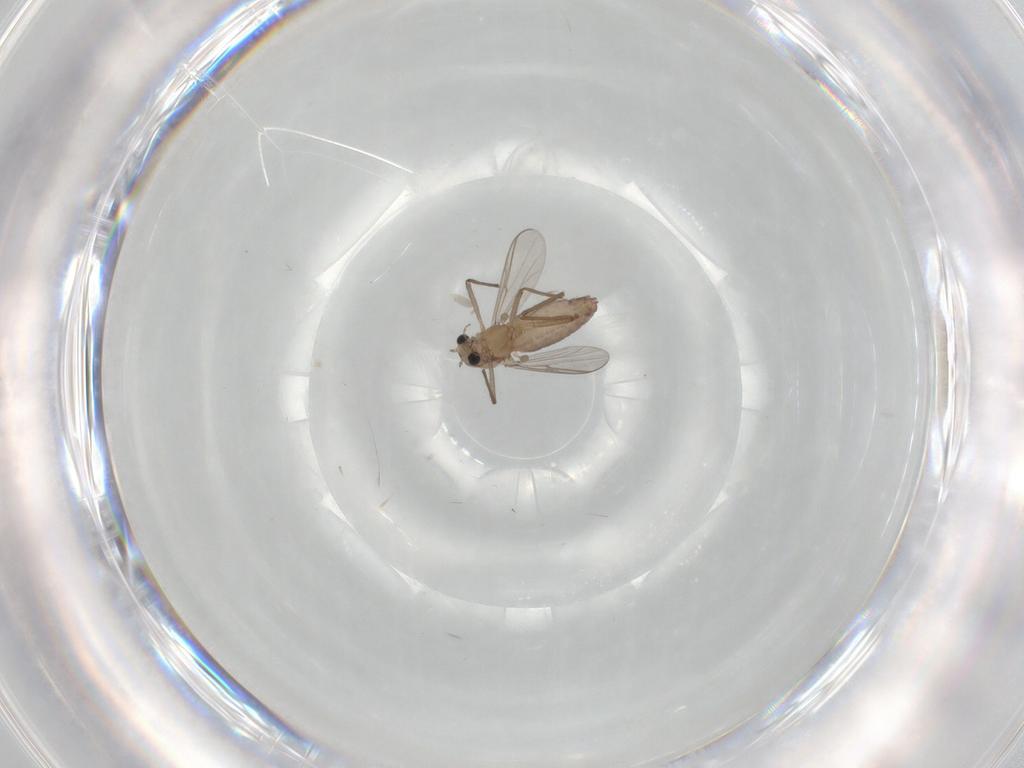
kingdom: Animalia
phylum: Arthropoda
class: Insecta
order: Diptera
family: Chironomidae
